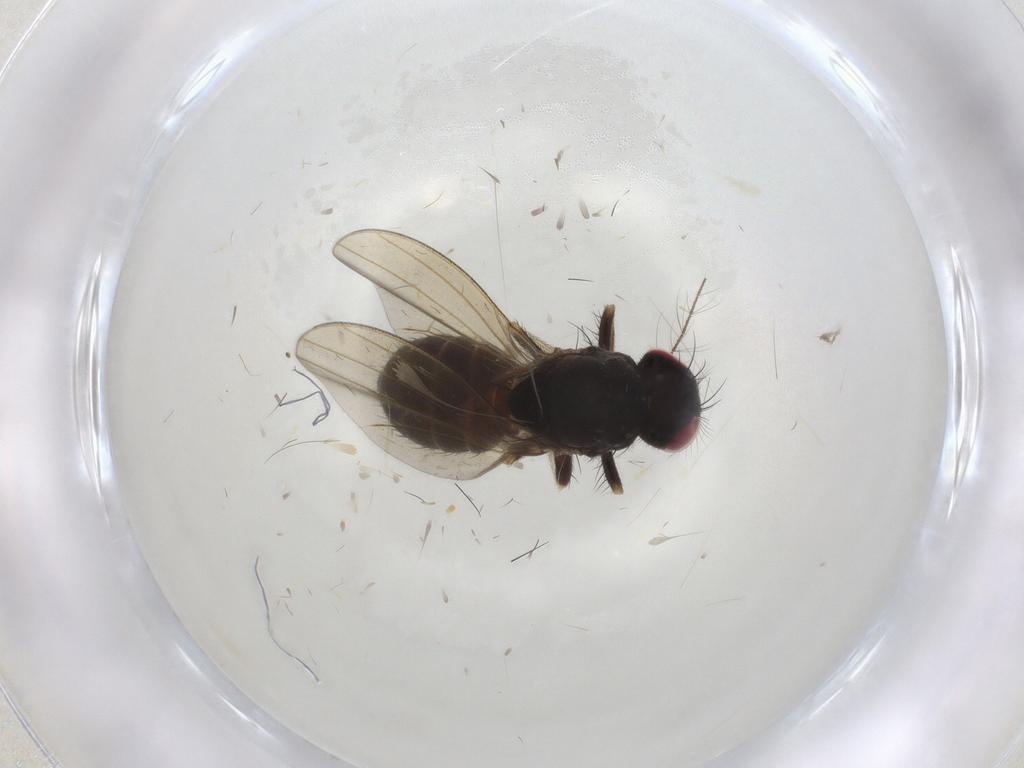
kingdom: Animalia
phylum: Arthropoda
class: Insecta
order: Diptera
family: Lauxaniidae
